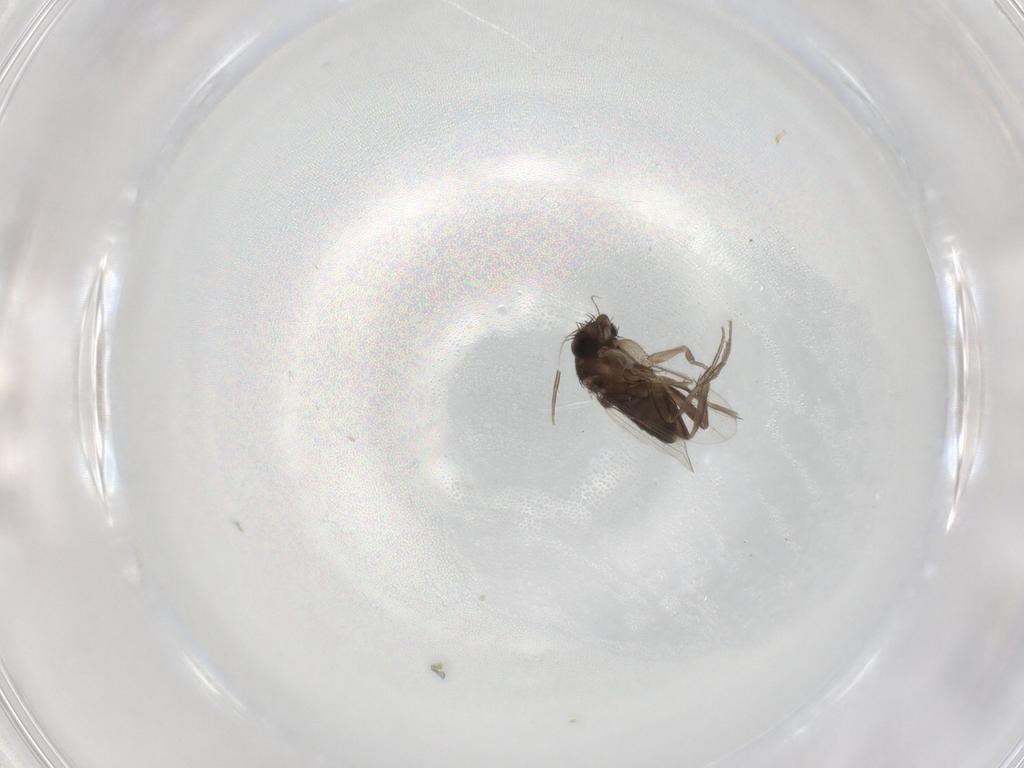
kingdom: Animalia
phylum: Arthropoda
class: Insecta
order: Diptera
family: Phoridae
